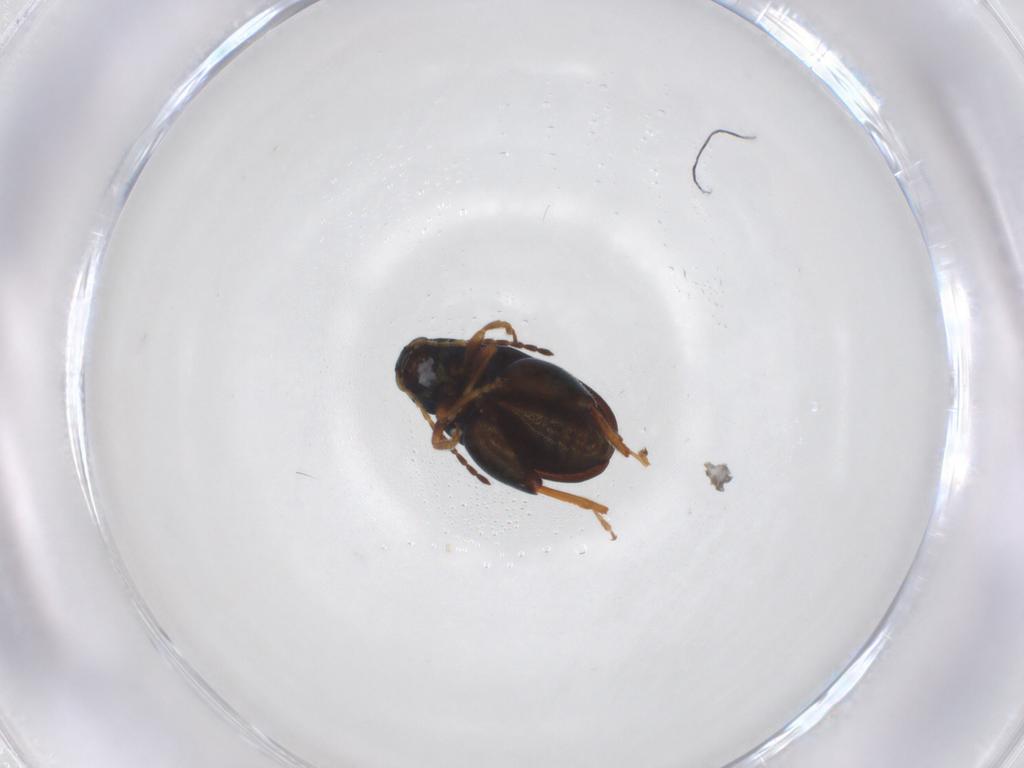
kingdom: Animalia
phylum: Arthropoda
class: Insecta
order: Coleoptera
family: Chrysomelidae
